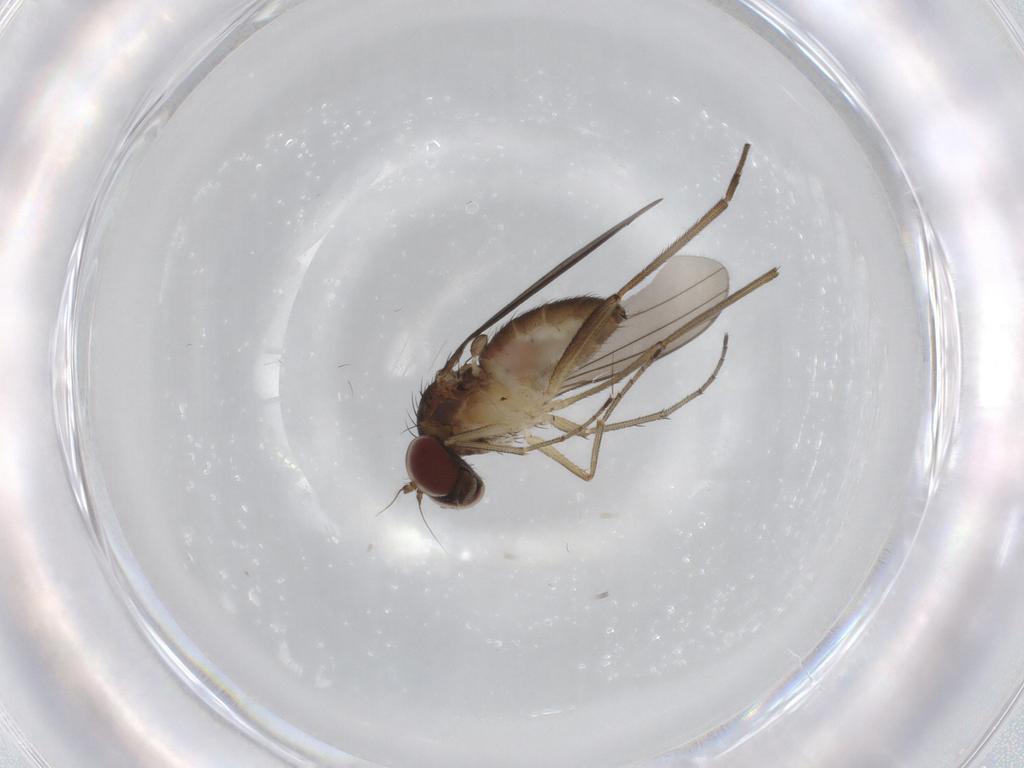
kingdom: Animalia
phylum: Arthropoda
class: Insecta
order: Diptera
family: Dolichopodidae
